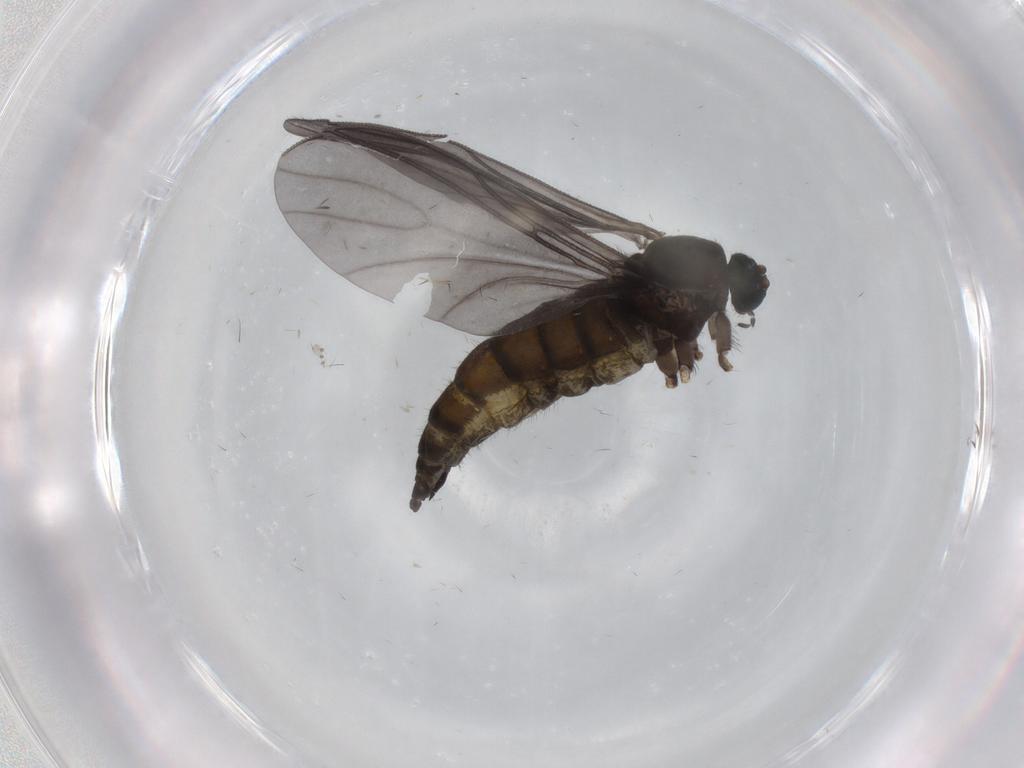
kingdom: Animalia
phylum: Arthropoda
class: Insecta
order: Diptera
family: Sciaridae
